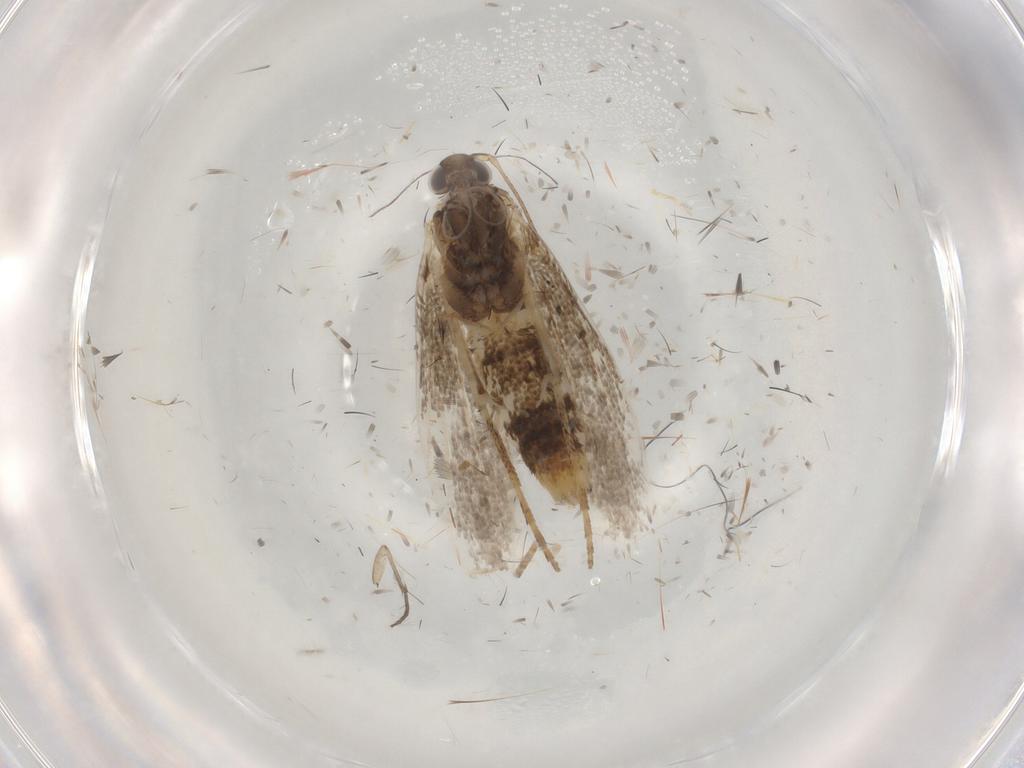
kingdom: Animalia
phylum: Arthropoda
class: Insecta
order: Lepidoptera
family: Gracillariidae
